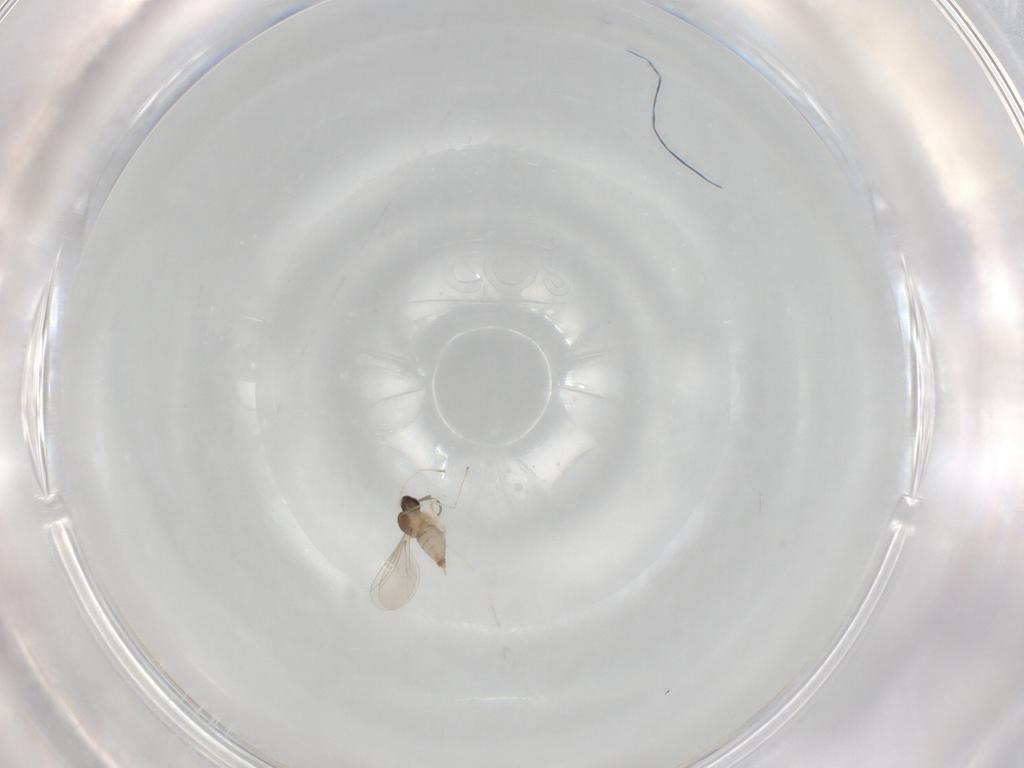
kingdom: Animalia
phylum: Arthropoda
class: Insecta
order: Diptera
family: Cecidomyiidae
